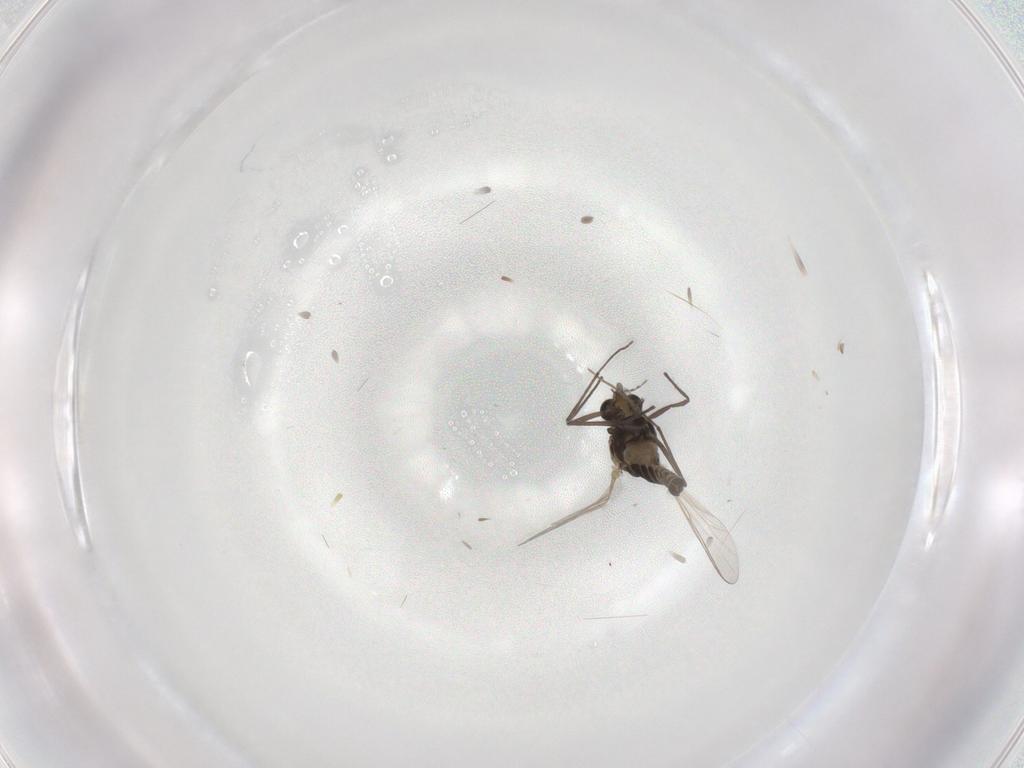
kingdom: Animalia
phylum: Arthropoda
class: Insecta
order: Diptera
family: Chironomidae
